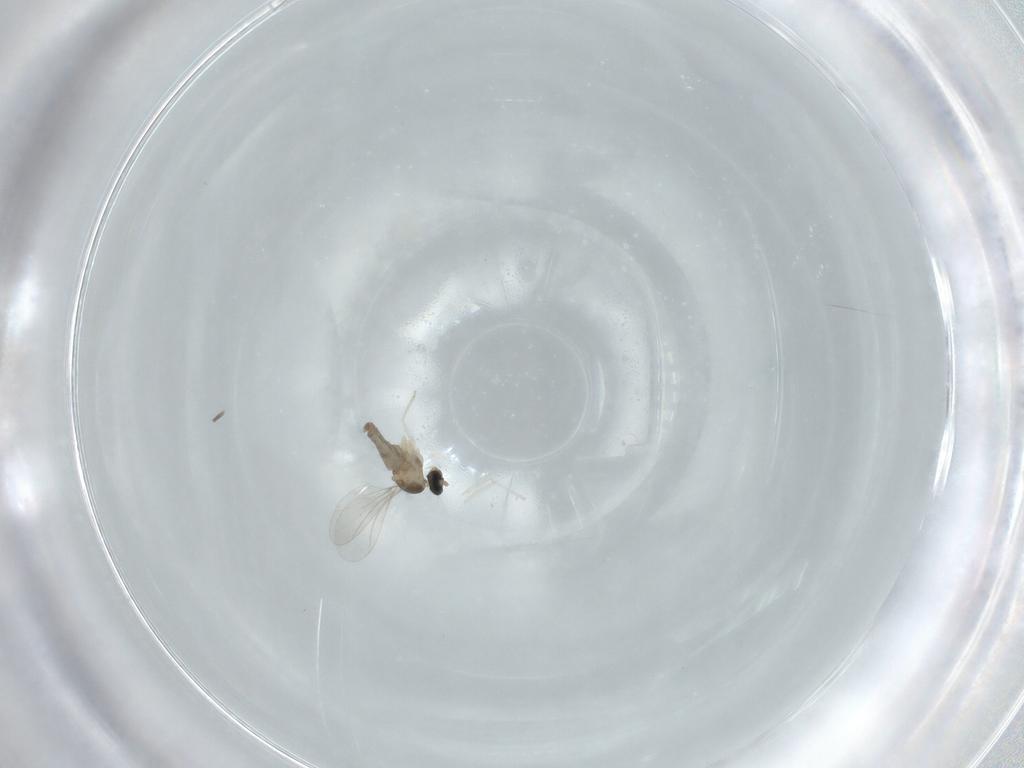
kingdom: Animalia
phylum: Arthropoda
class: Insecta
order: Diptera
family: Cecidomyiidae
